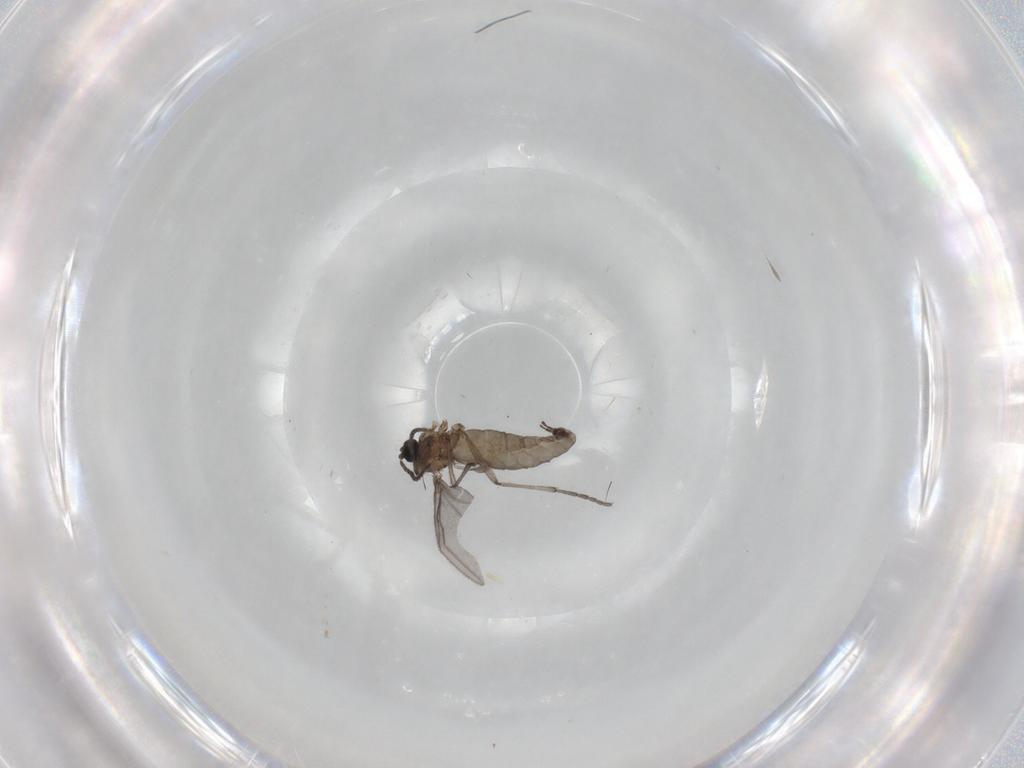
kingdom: Animalia
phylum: Arthropoda
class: Insecta
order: Diptera
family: Sciaridae
